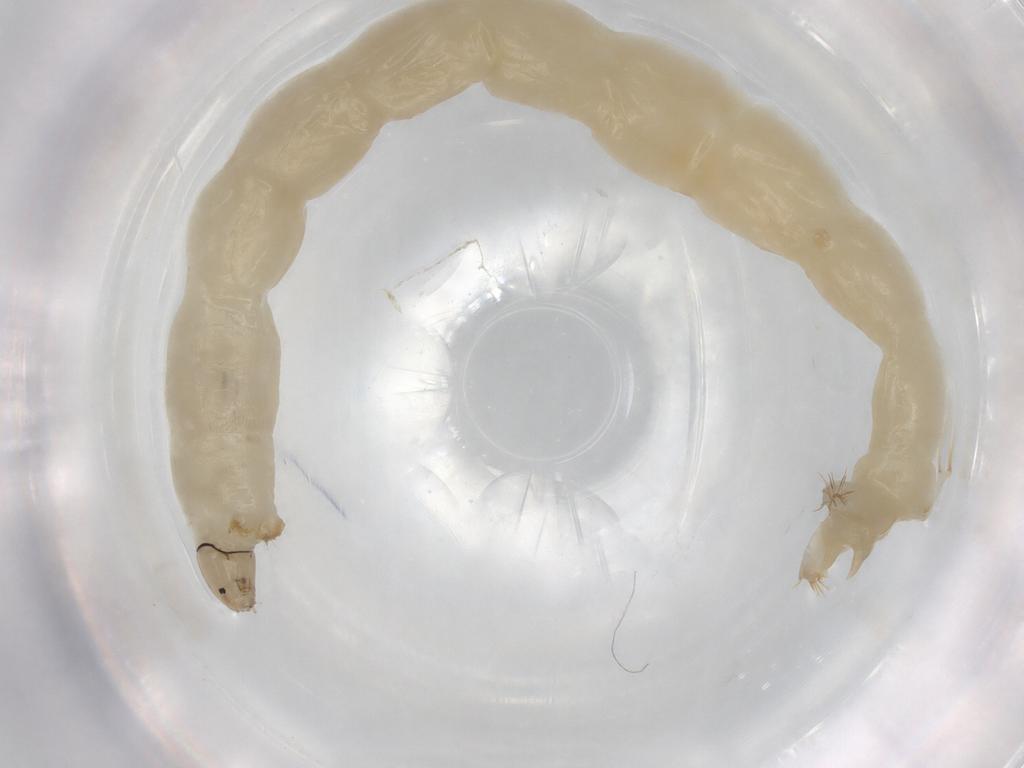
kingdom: Animalia
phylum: Arthropoda
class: Insecta
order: Diptera
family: Chironomidae
